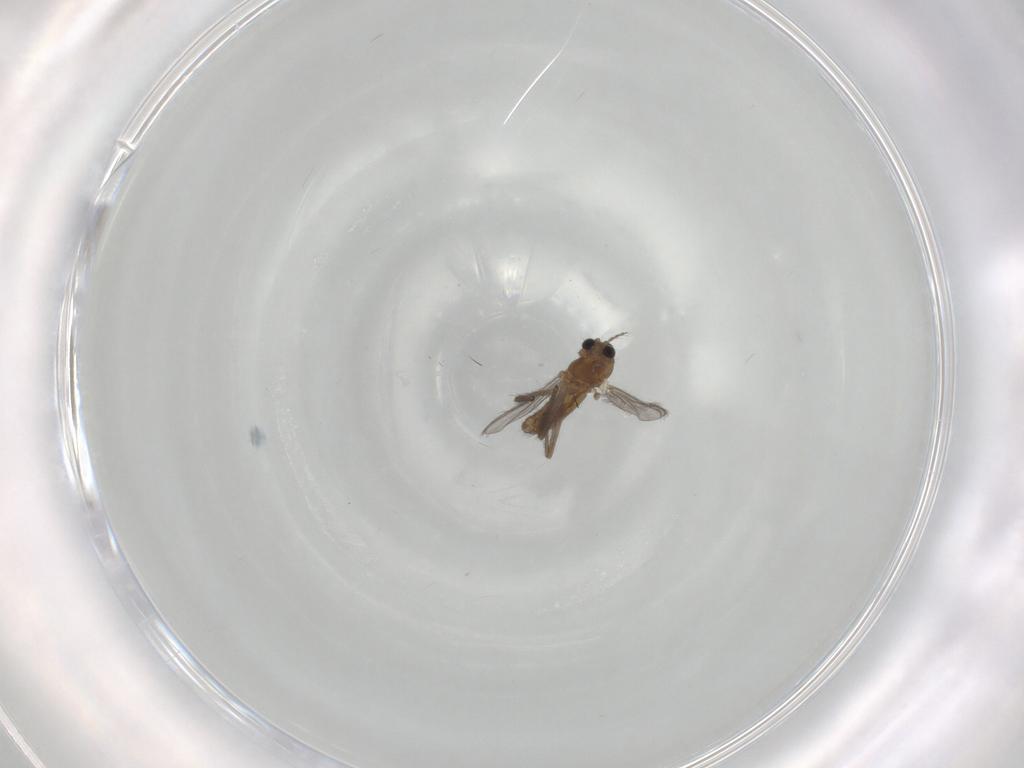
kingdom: Animalia
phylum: Arthropoda
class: Insecta
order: Diptera
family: Chironomidae
